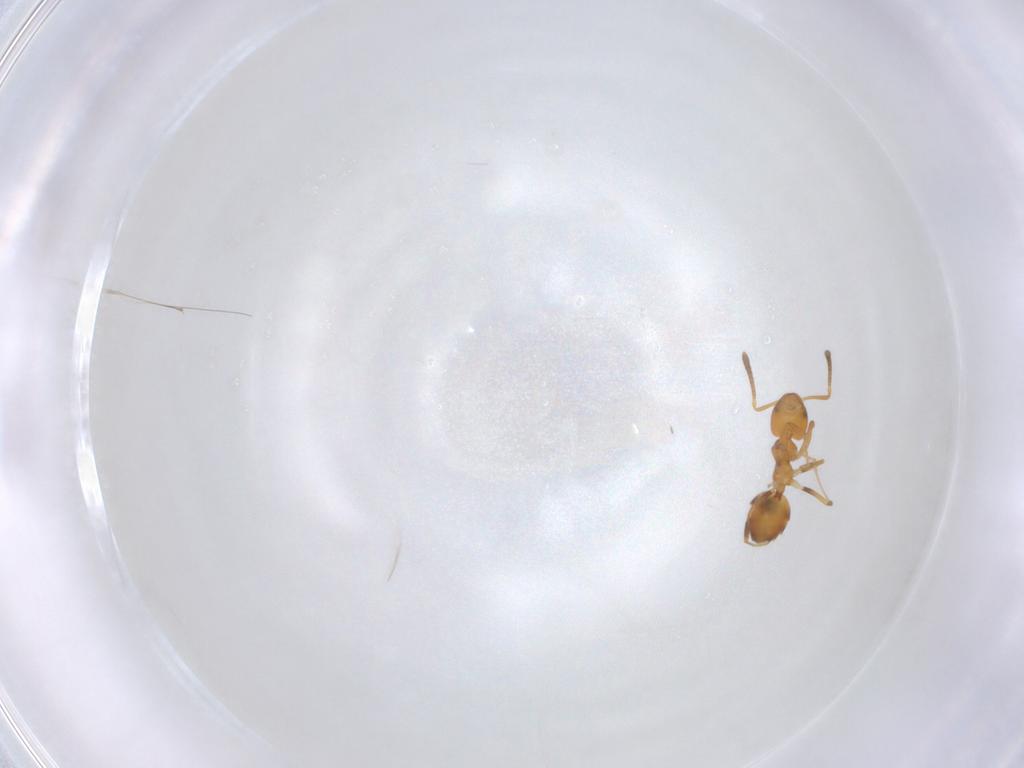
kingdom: Animalia
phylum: Arthropoda
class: Insecta
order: Hymenoptera
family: Formicidae
